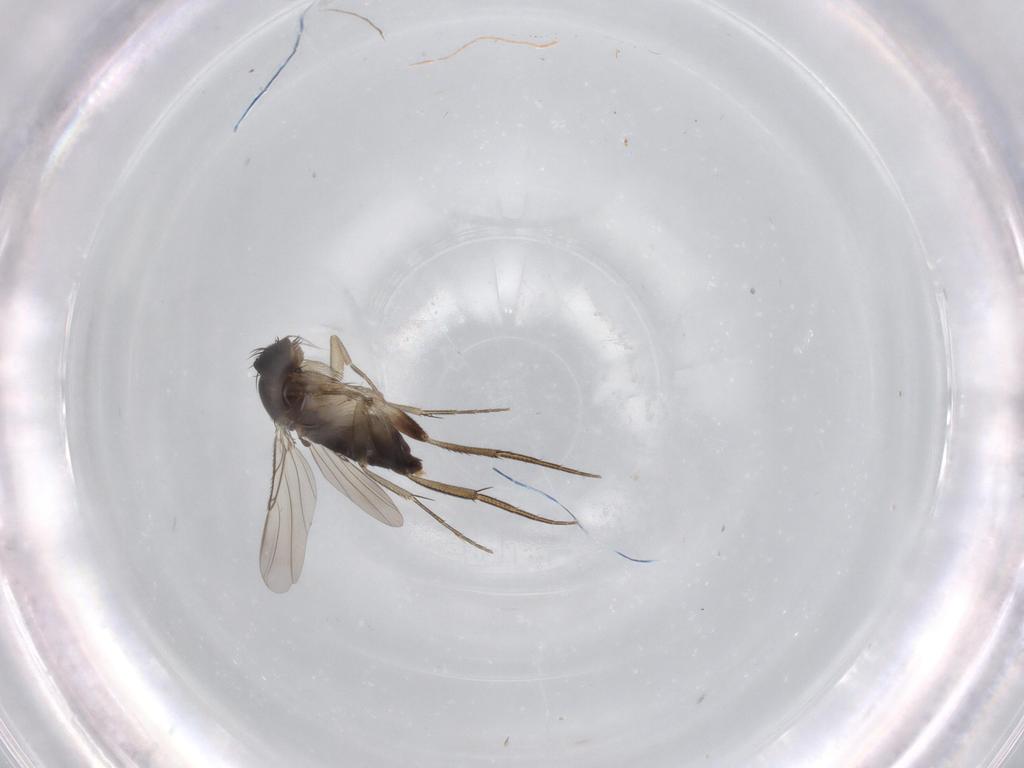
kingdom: Animalia
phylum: Arthropoda
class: Insecta
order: Diptera
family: Phoridae
